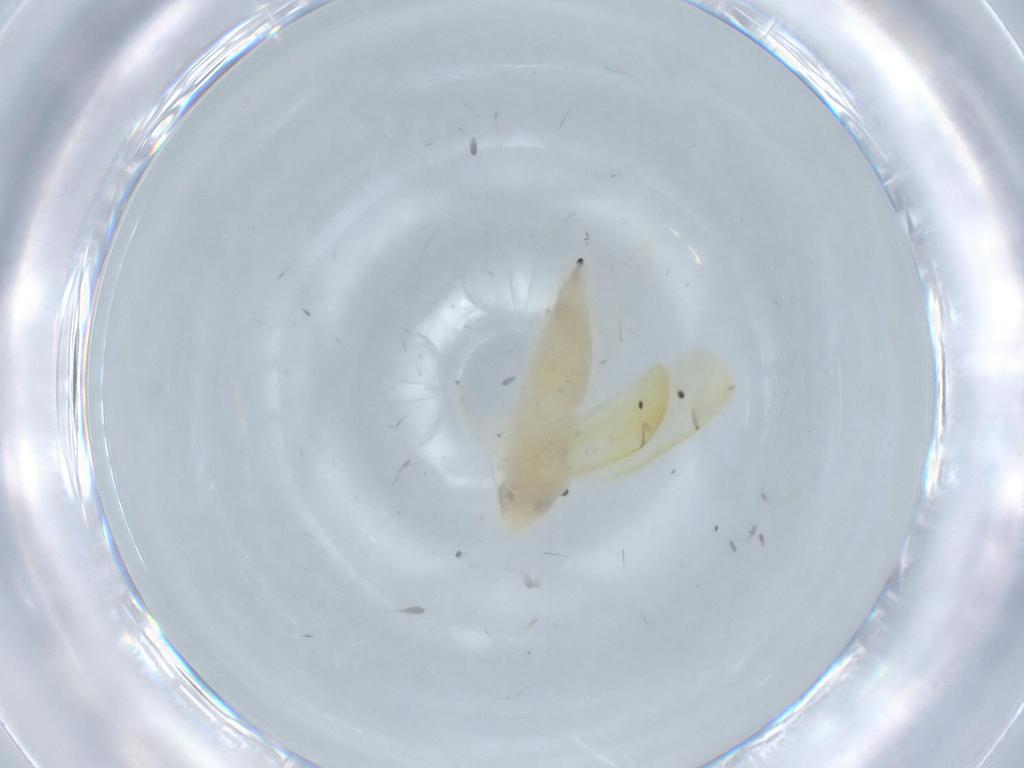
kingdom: Animalia
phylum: Arthropoda
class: Insecta
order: Hemiptera
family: Cicadellidae
